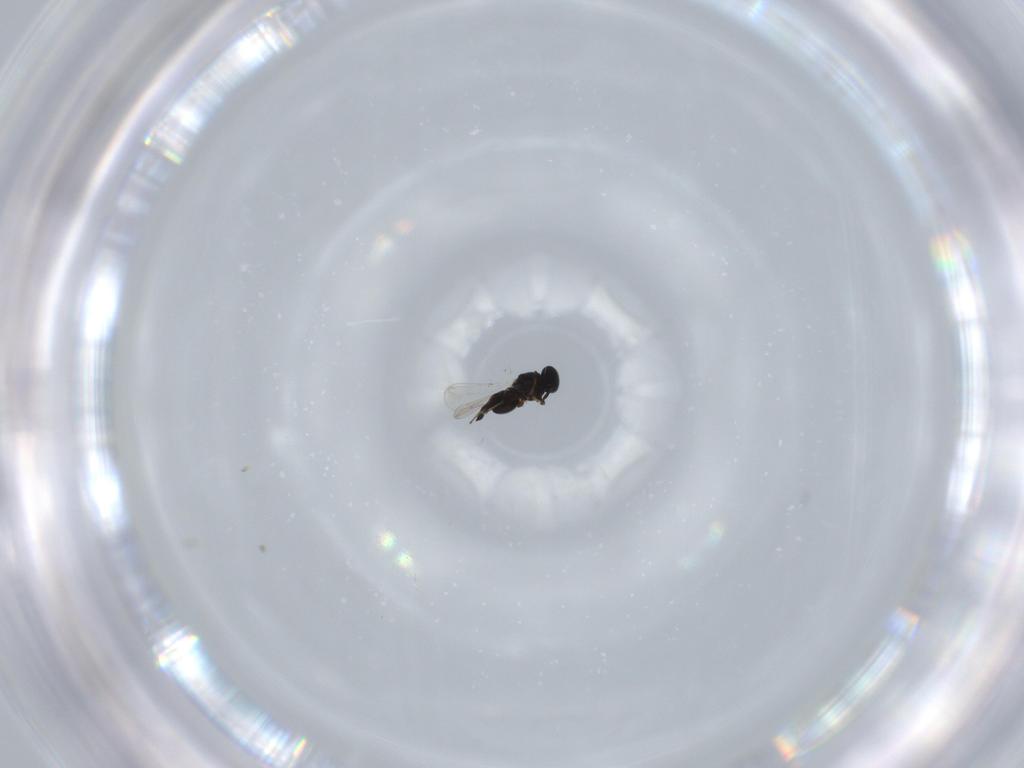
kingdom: Animalia
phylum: Arthropoda
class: Insecta
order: Hymenoptera
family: Platygastridae
